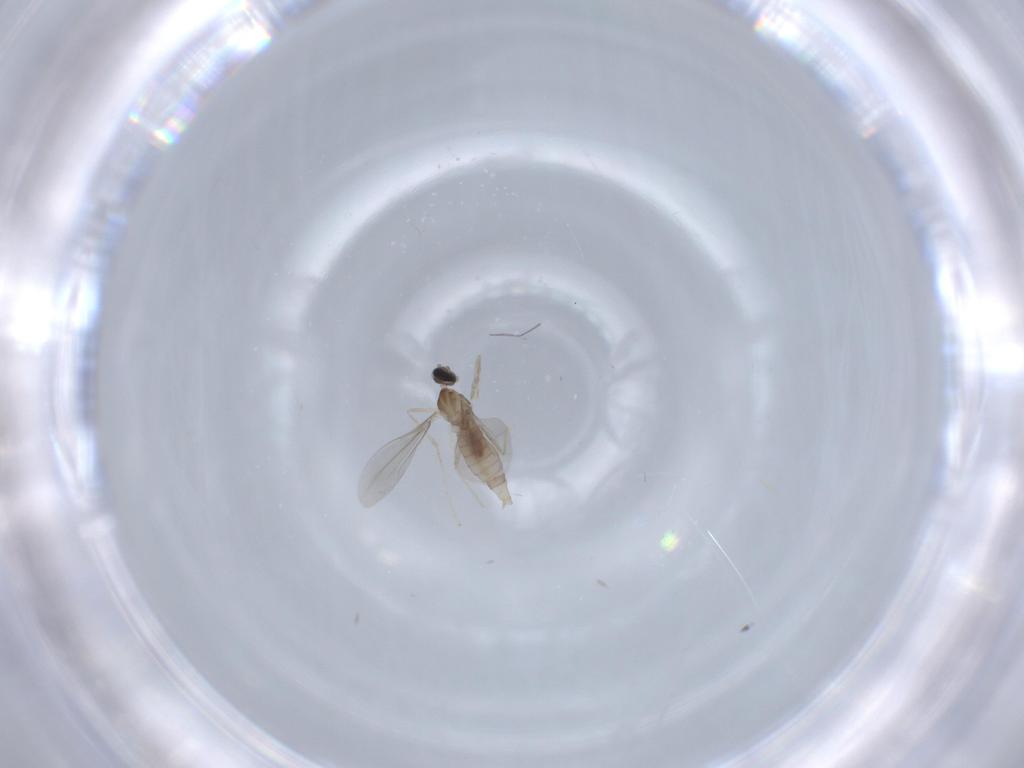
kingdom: Animalia
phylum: Arthropoda
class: Insecta
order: Diptera
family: Cecidomyiidae
